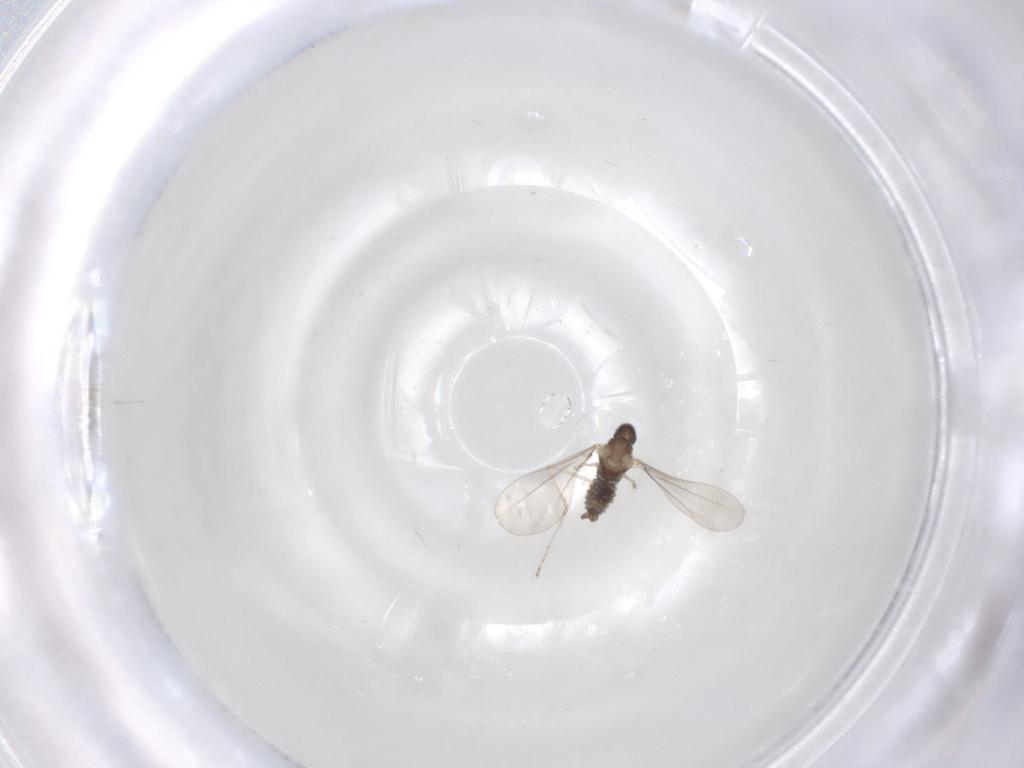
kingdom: Animalia
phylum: Arthropoda
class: Insecta
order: Diptera
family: Cecidomyiidae
